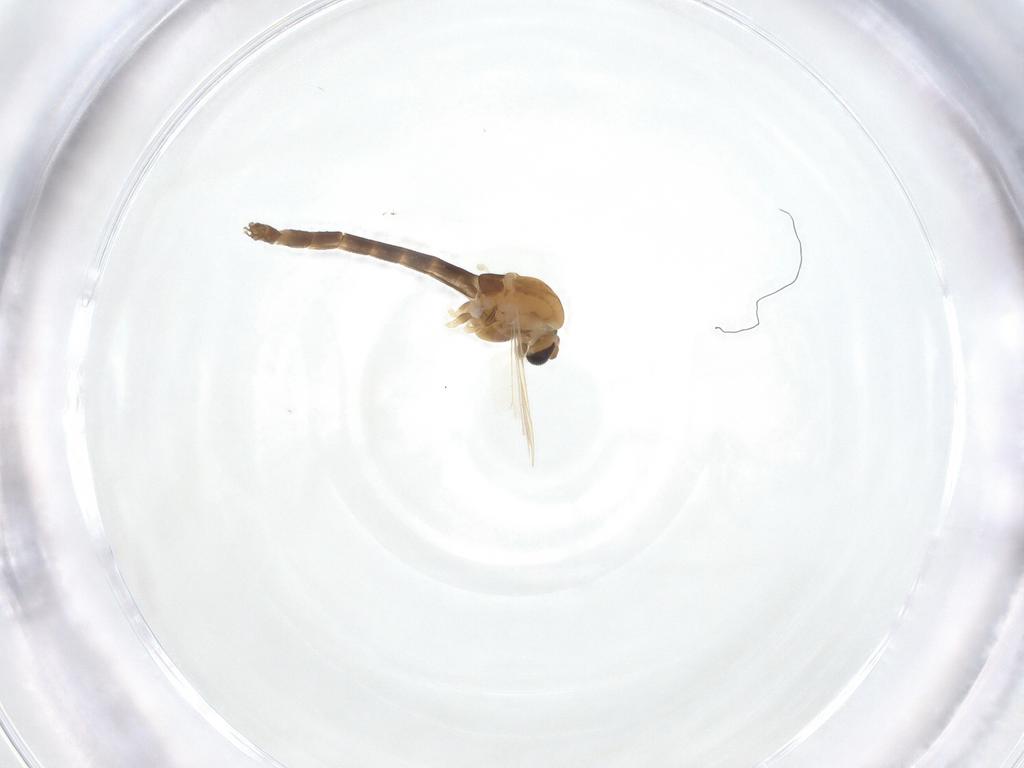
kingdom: Animalia
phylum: Arthropoda
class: Insecta
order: Diptera
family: Chironomidae
